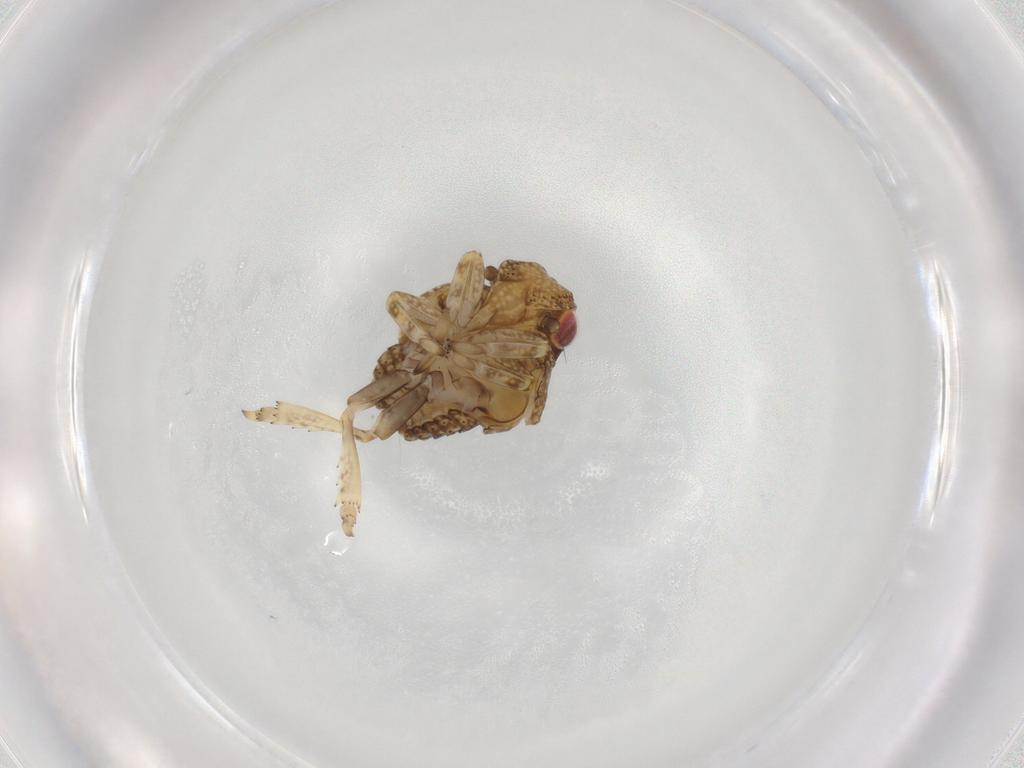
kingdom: Animalia
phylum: Arthropoda
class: Insecta
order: Hemiptera
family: Acanaloniidae
